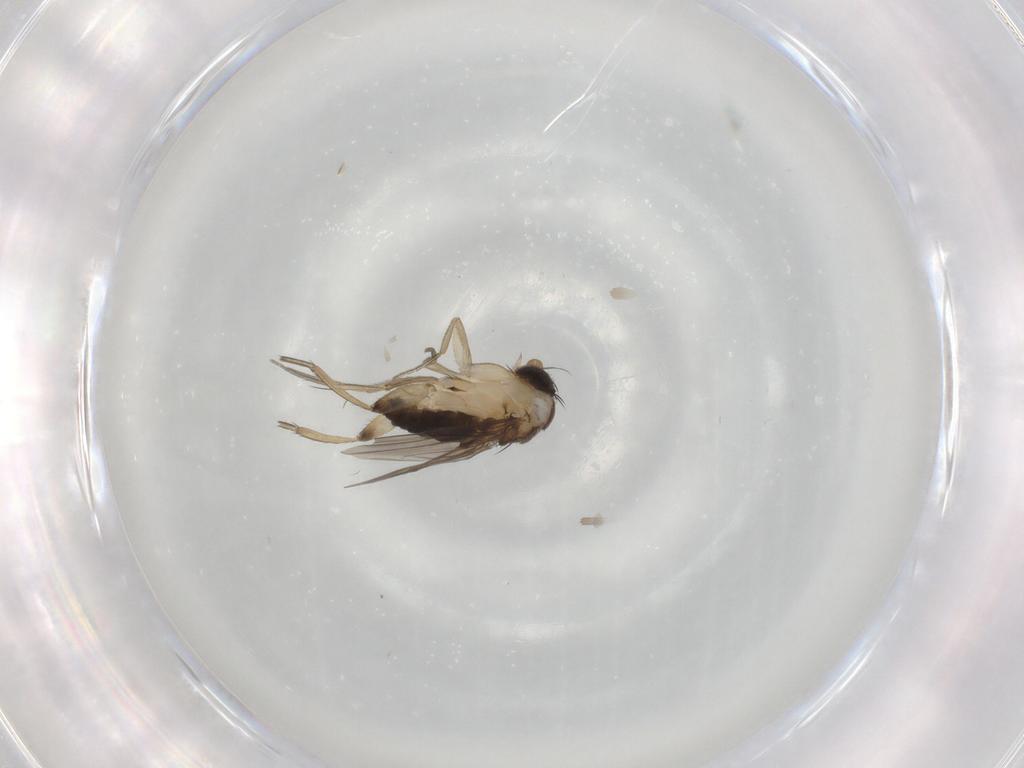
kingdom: Animalia
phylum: Arthropoda
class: Insecta
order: Diptera
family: Phoridae
